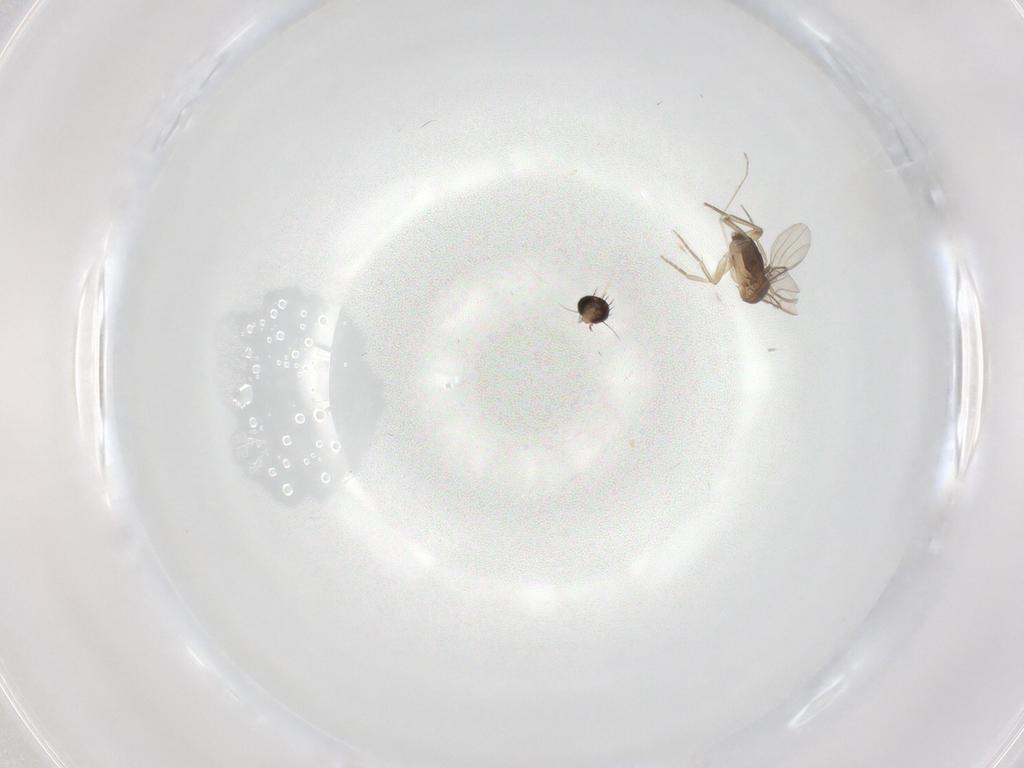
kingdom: Animalia
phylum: Arthropoda
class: Insecta
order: Diptera
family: Phoridae
